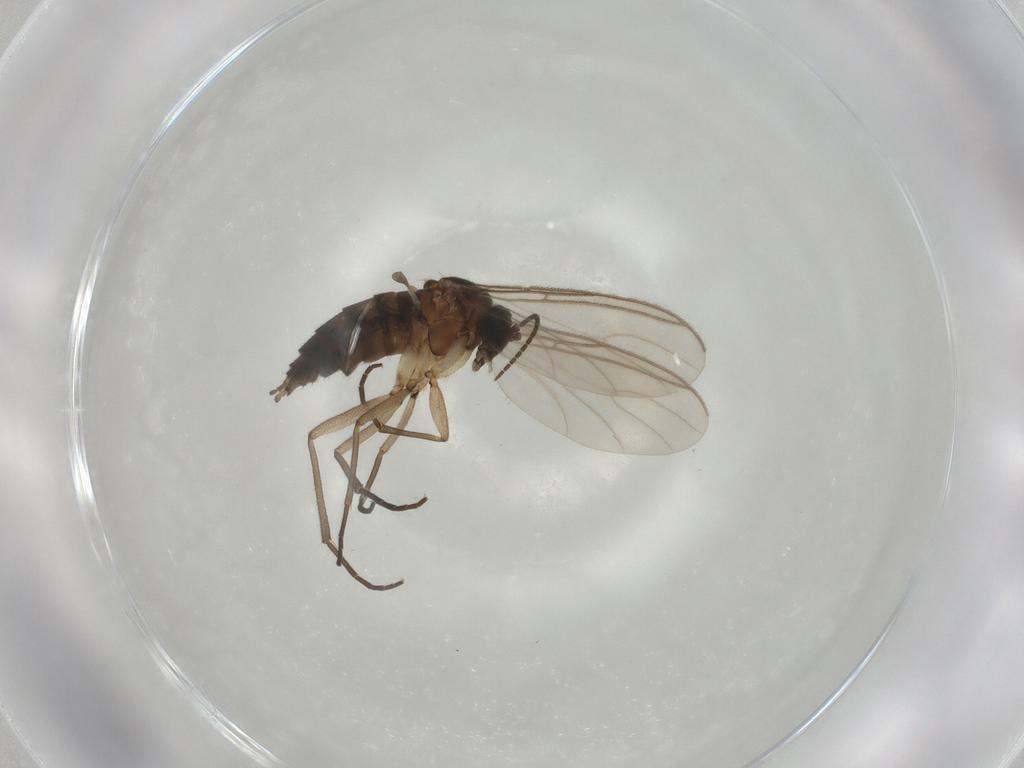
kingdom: Animalia
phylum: Arthropoda
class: Insecta
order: Diptera
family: Sciaridae
